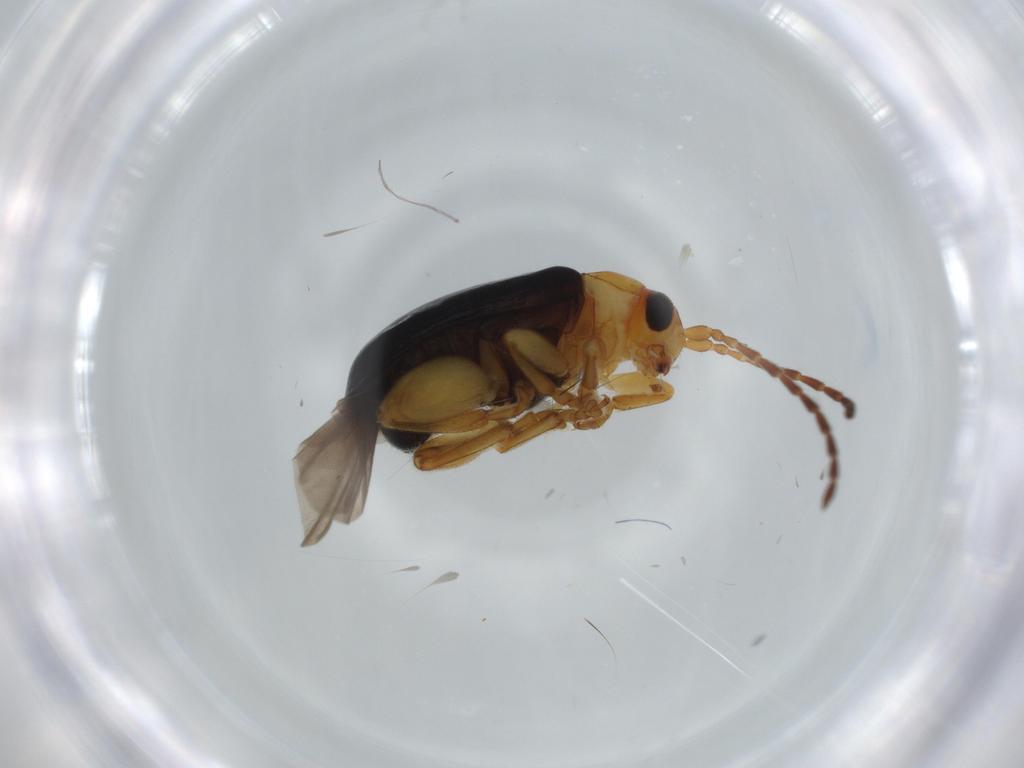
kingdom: Animalia
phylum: Arthropoda
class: Insecta
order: Coleoptera
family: Chrysomelidae
